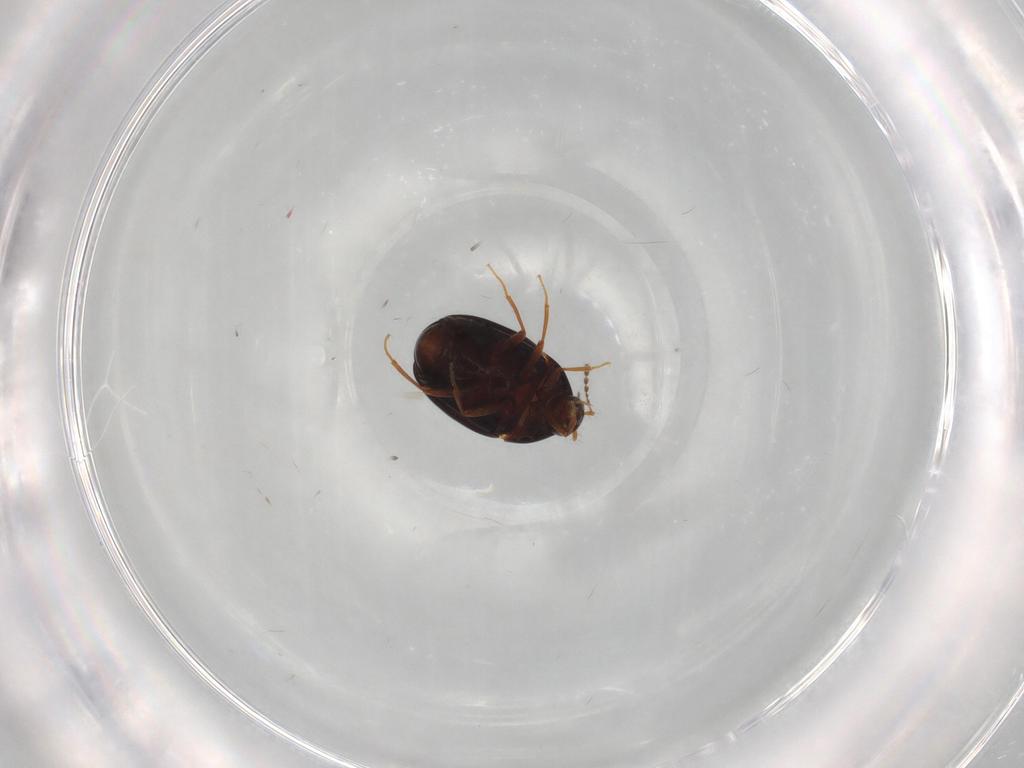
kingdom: Animalia
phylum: Arthropoda
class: Insecta
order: Coleoptera
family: Staphylinidae
